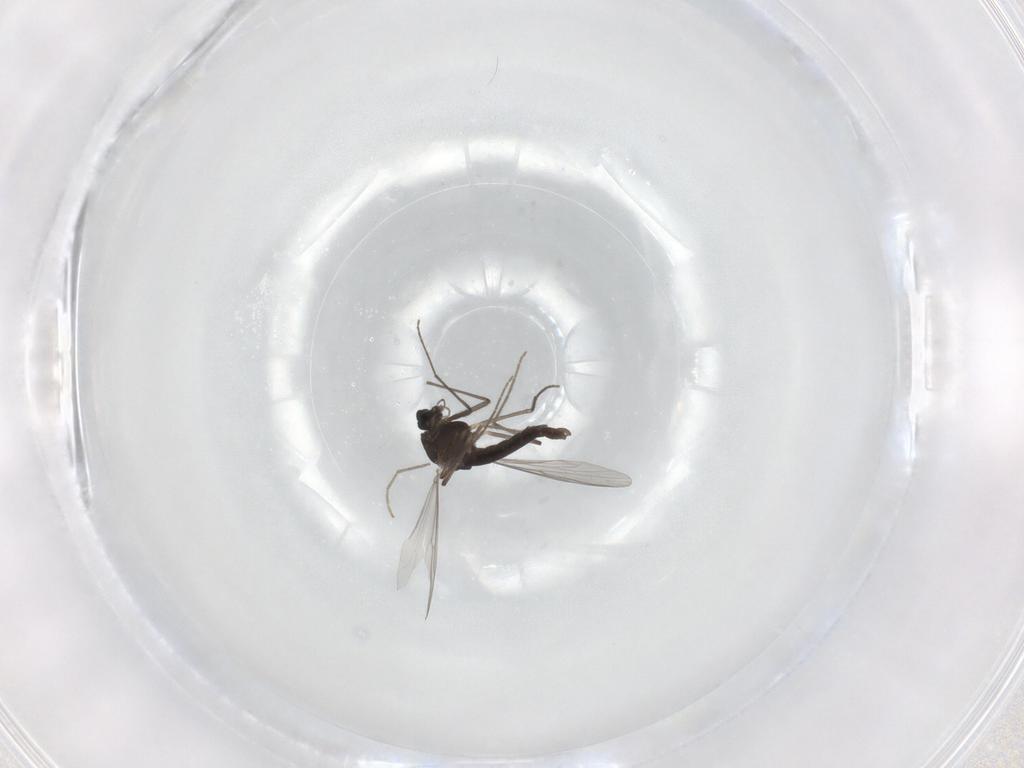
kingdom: Animalia
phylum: Arthropoda
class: Insecta
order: Diptera
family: Chironomidae
